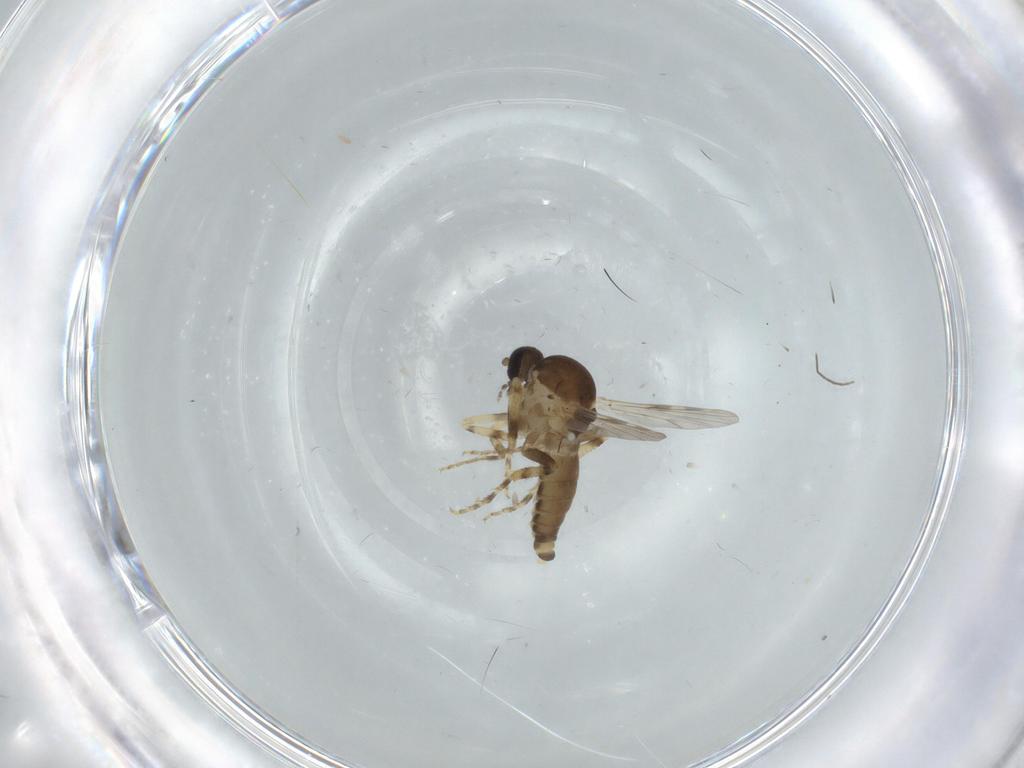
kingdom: Animalia
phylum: Arthropoda
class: Insecta
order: Diptera
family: Ceratopogonidae
